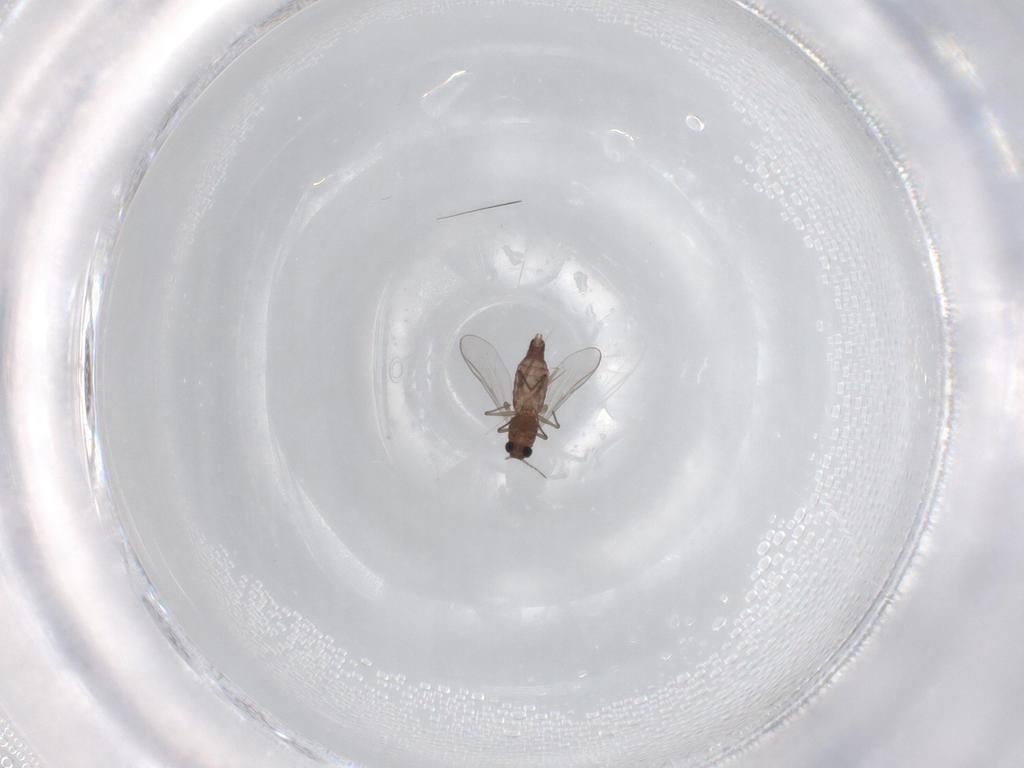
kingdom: Animalia
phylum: Arthropoda
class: Insecta
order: Diptera
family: Chironomidae
